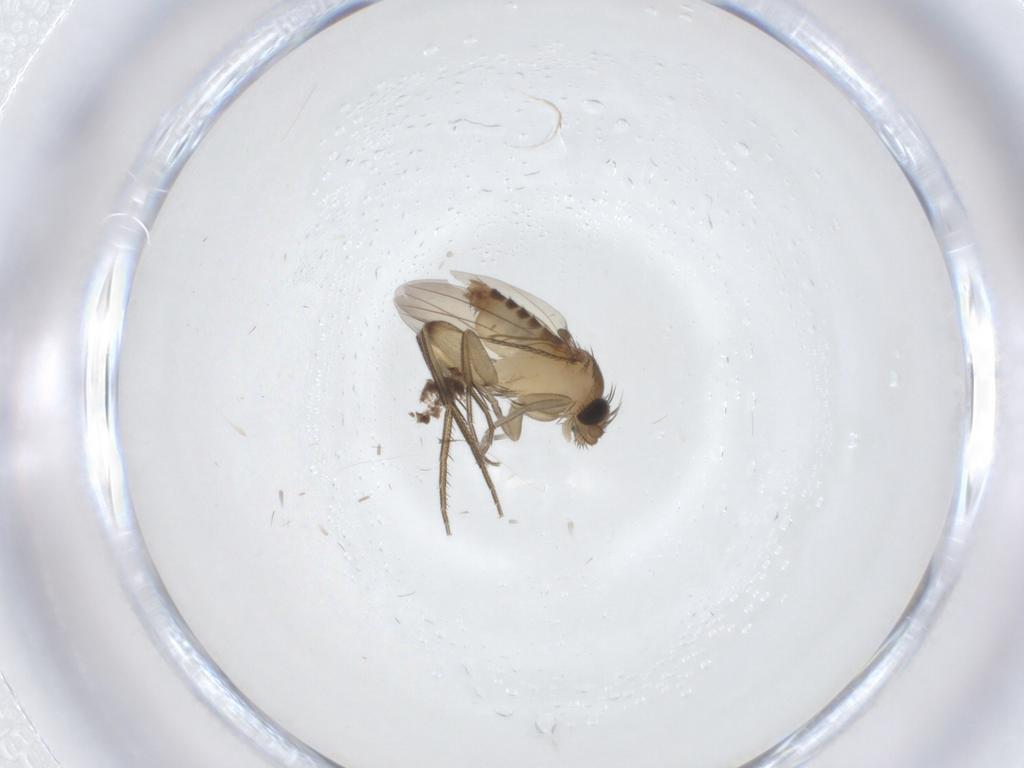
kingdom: Animalia
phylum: Arthropoda
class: Insecta
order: Diptera
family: Phoridae
